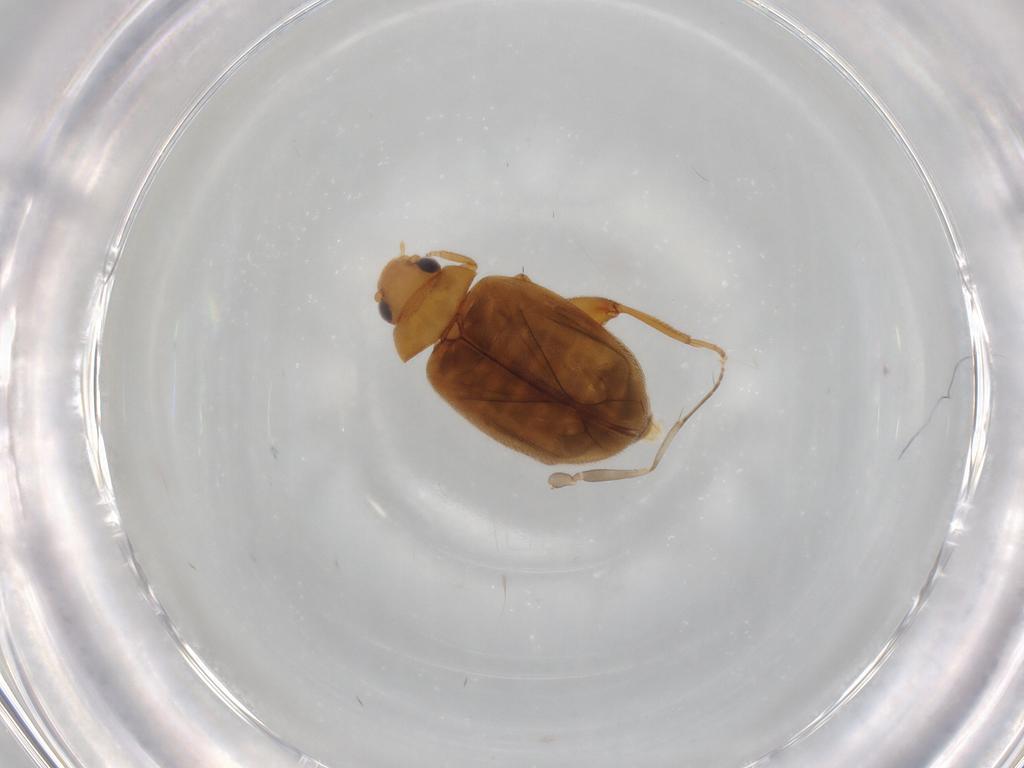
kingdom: Animalia
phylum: Arthropoda
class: Insecta
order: Coleoptera
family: Scirtidae
